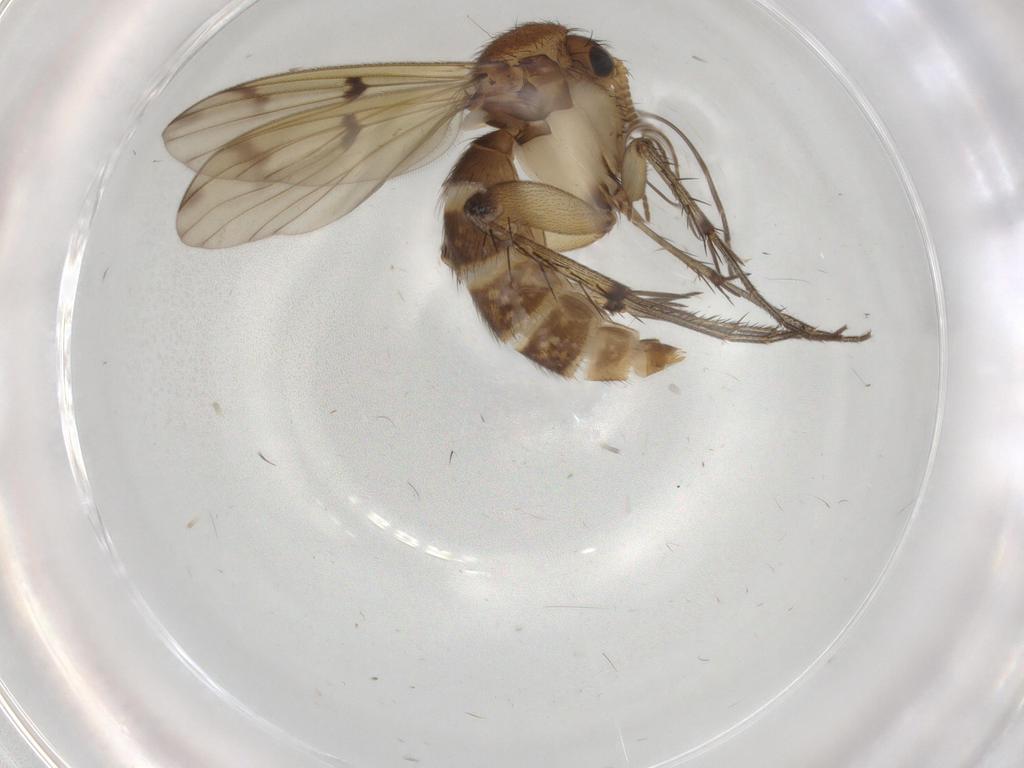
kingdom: Animalia
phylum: Arthropoda
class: Insecta
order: Diptera
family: Mycetophilidae
